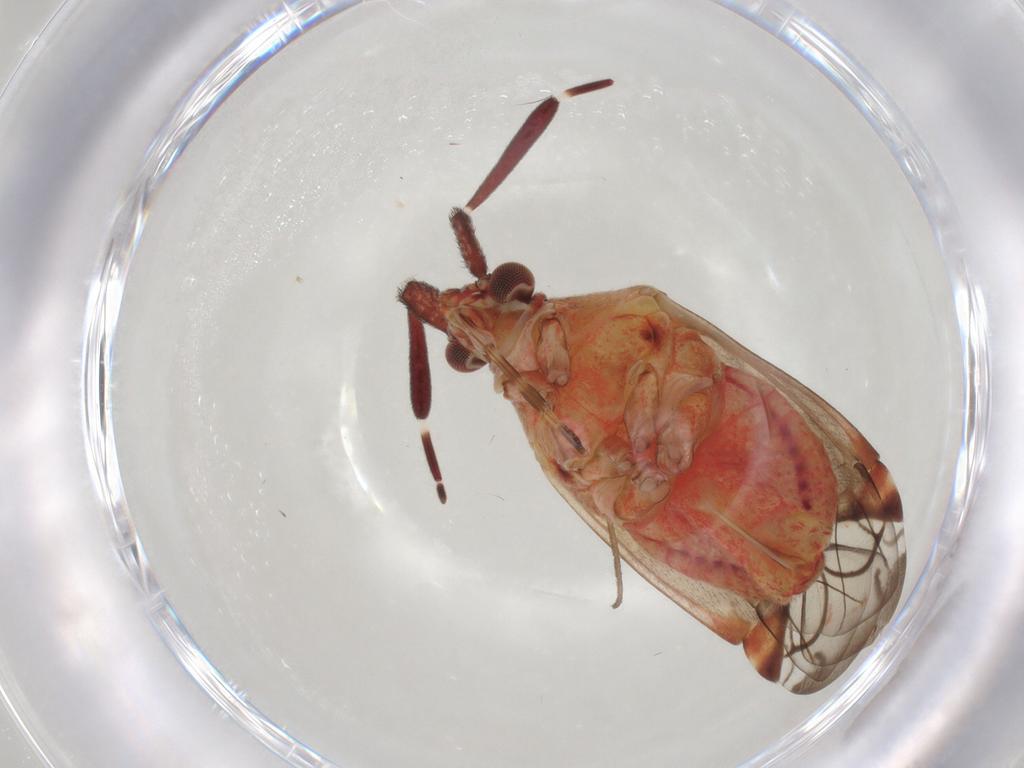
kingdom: Animalia
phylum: Arthropoda
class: Insecta
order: Hemiptera
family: Miridae
